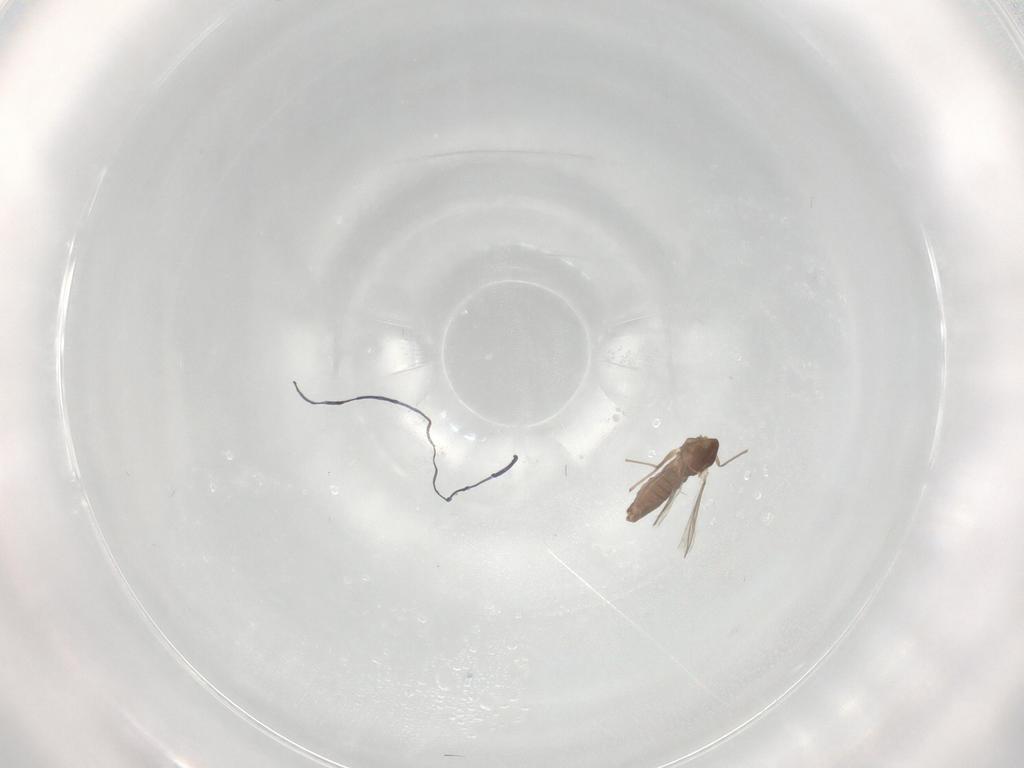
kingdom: Animalia
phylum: Arthropoda
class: Insecta
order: Diptera
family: Chironomidae
